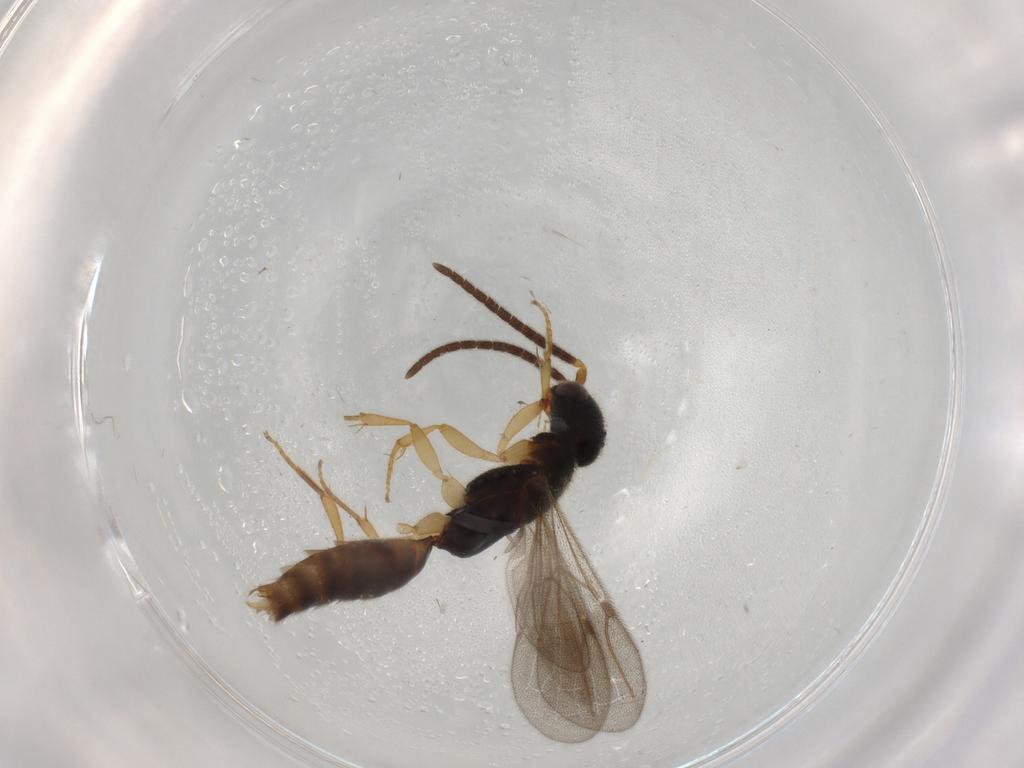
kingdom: Animalia
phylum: Arthropoda
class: Insecta
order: Hymenoptera
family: Bethylidae
